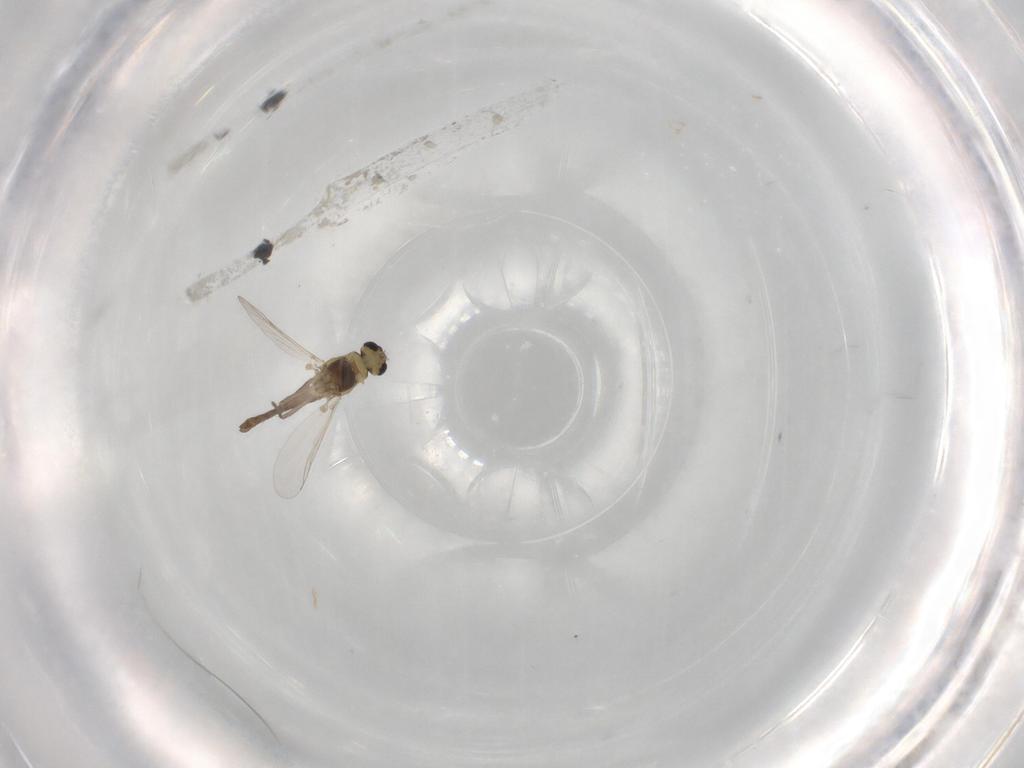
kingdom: Animalia
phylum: Arthropoda
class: Insecta
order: Diptera
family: Chironomidae
